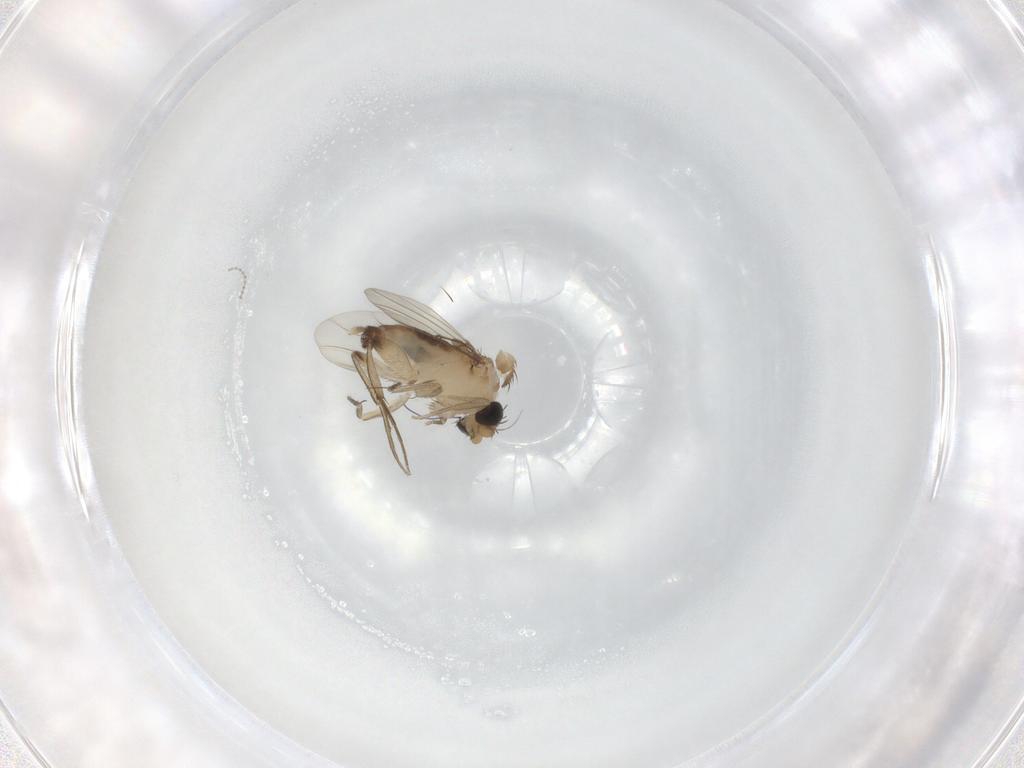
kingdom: Animalia
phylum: Arthropoda
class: Insecta
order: Diptera
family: Phoridae
